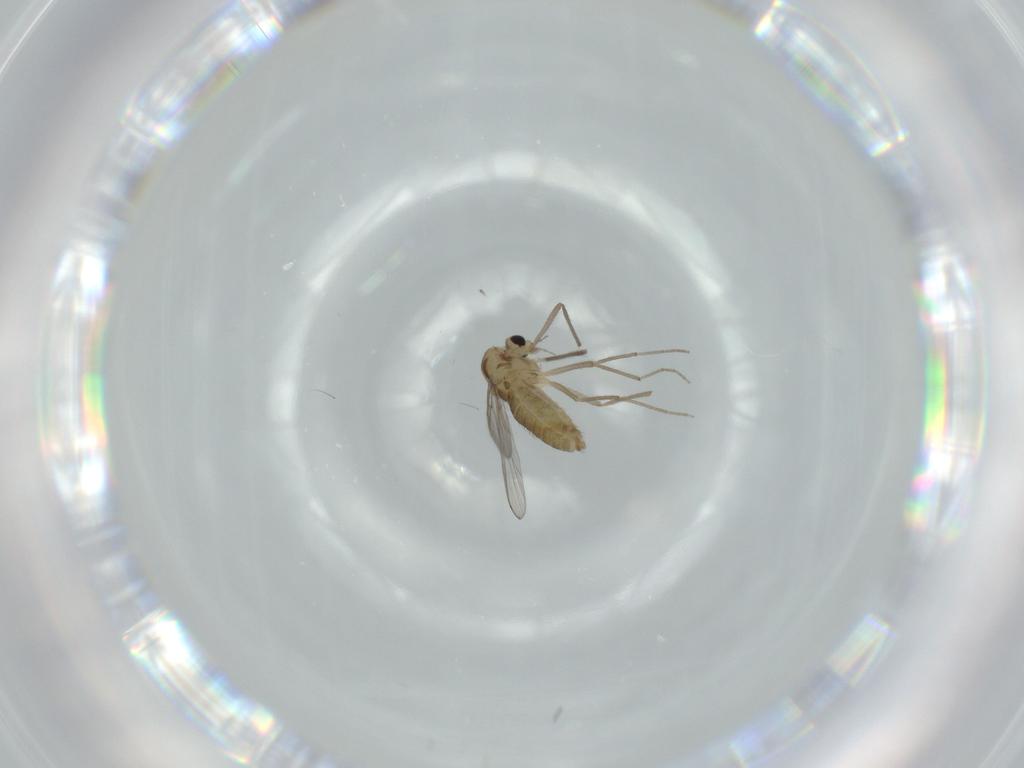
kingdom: Animalia
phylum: Arthropoda
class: Insecta
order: Diptera
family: Chironomidae
